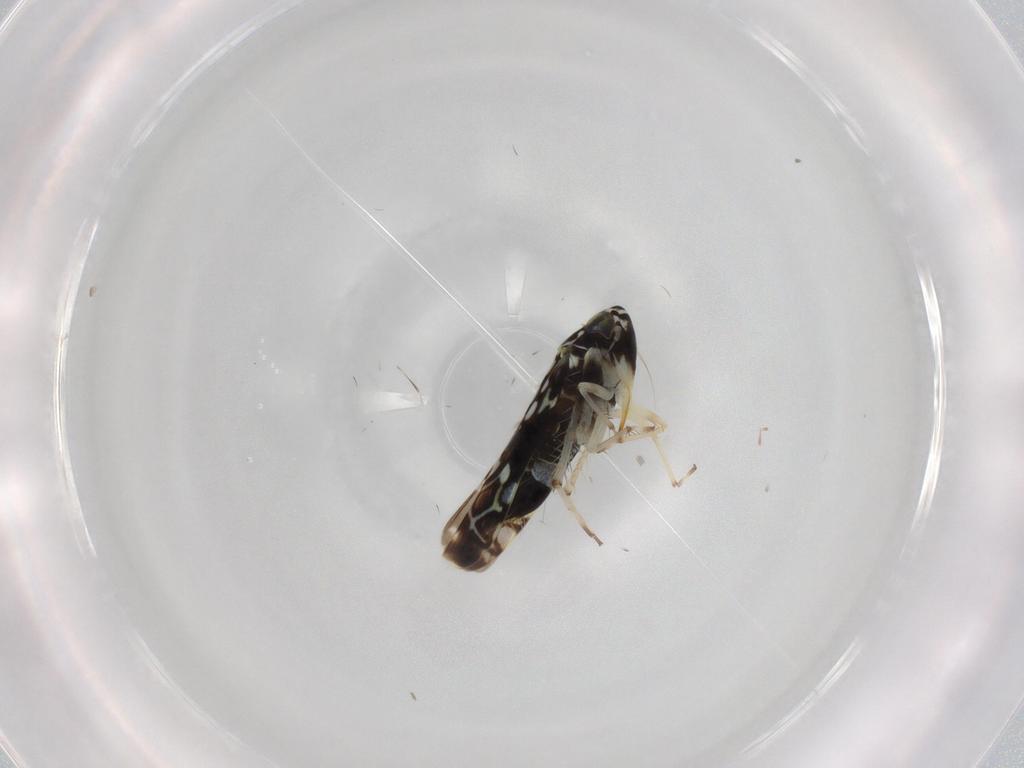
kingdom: Animalia
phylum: Arthropoda
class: Insecta
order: Hemiptera
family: Cicadellidae
